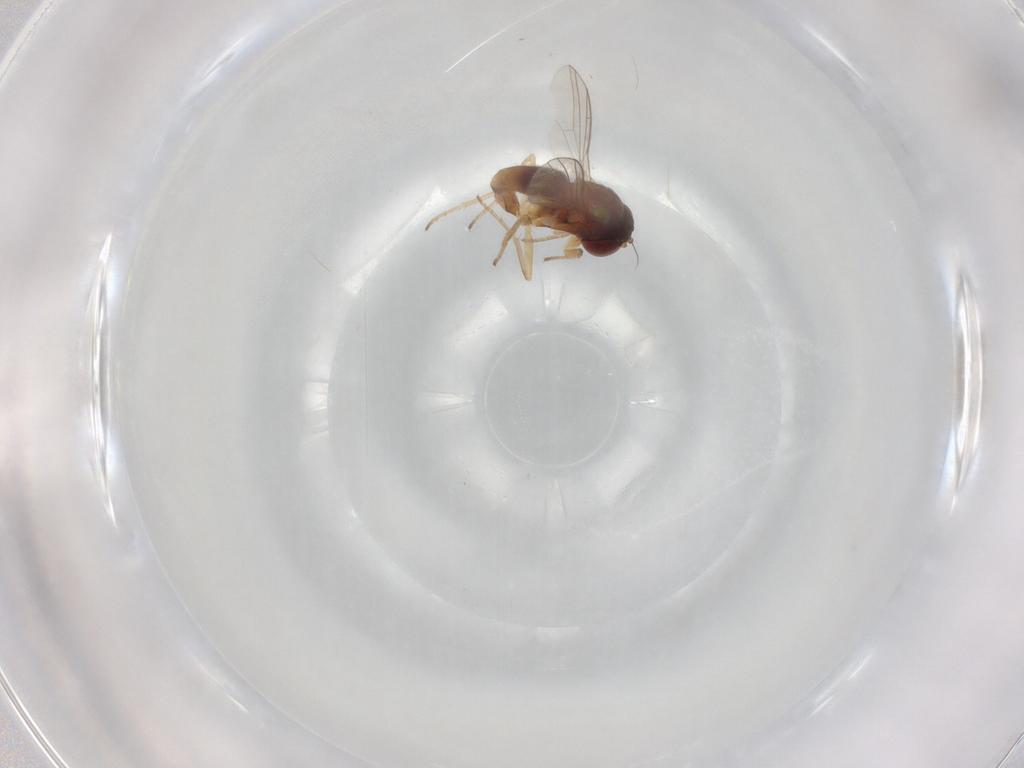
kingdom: Animalia
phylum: Arthropoda
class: Insecta
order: Diptera
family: Dolichopodidae
